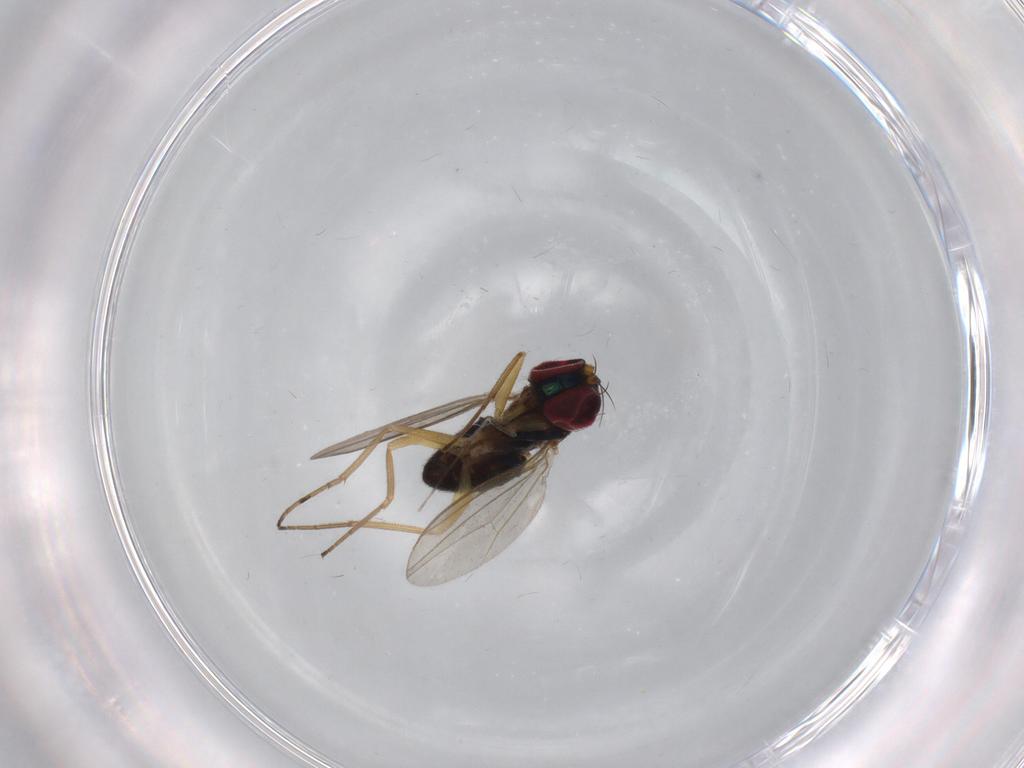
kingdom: Animalia
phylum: Arthropoda
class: Insecta
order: Diptera
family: Dolichopodidae
